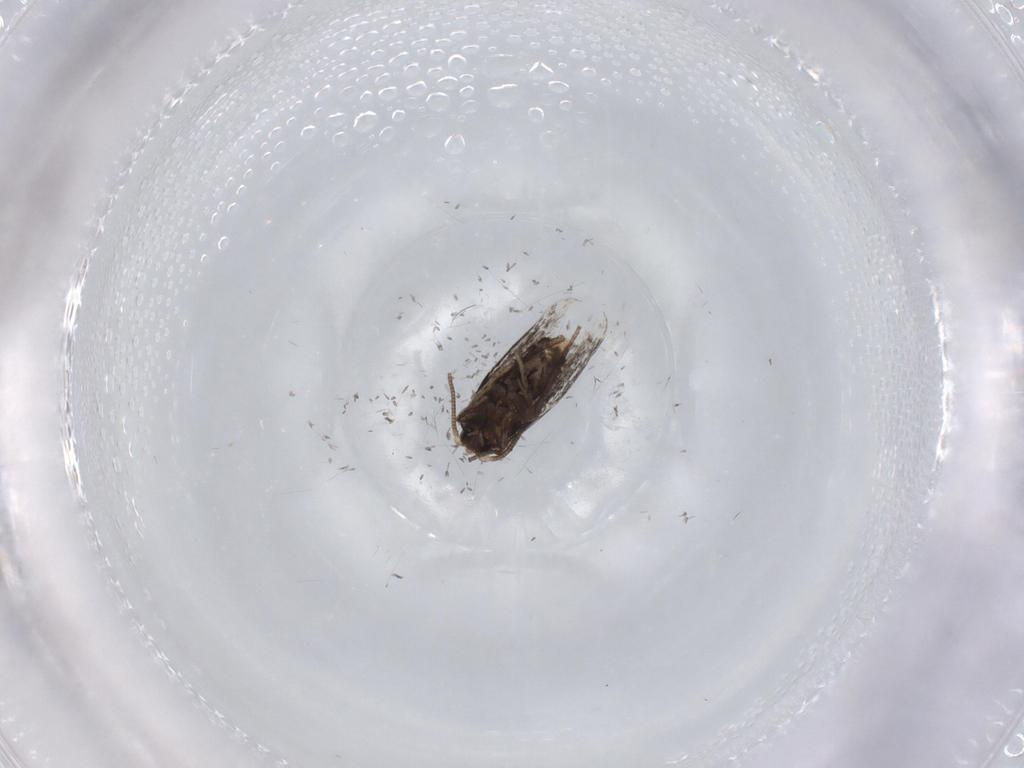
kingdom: Animalia
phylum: Arthropoda
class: Insecta
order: Lepidoptera
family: Nepticulidae
